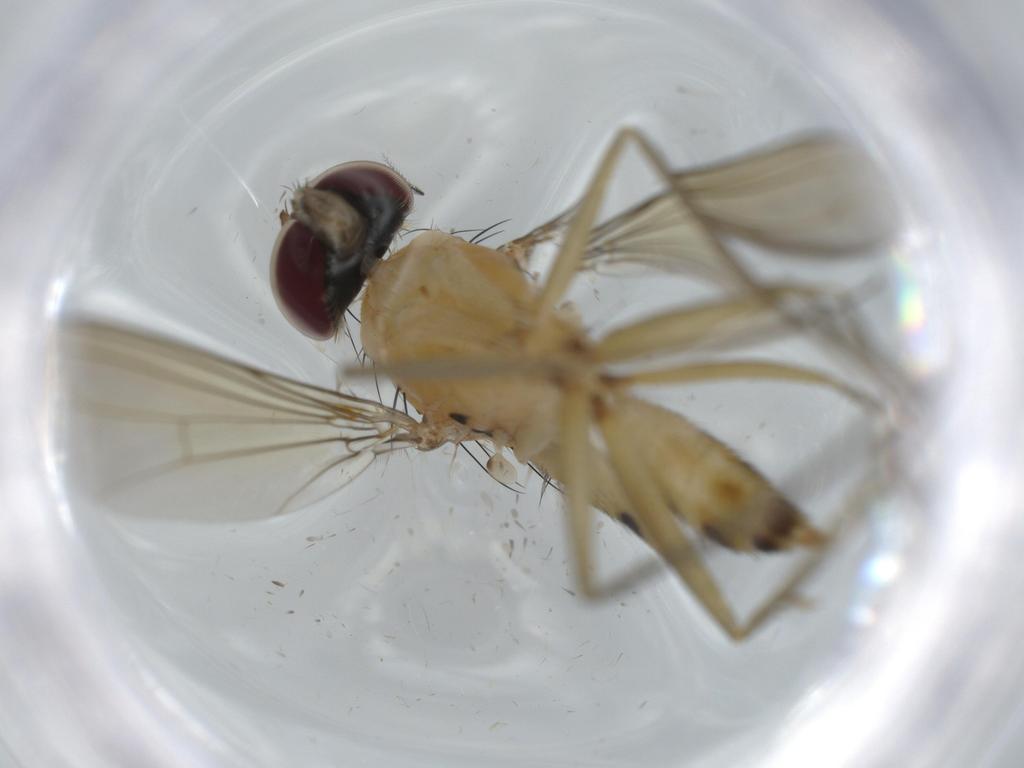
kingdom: Animalia
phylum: Arthropoda
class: Insecta
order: Diptera
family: Dolichopodidae
